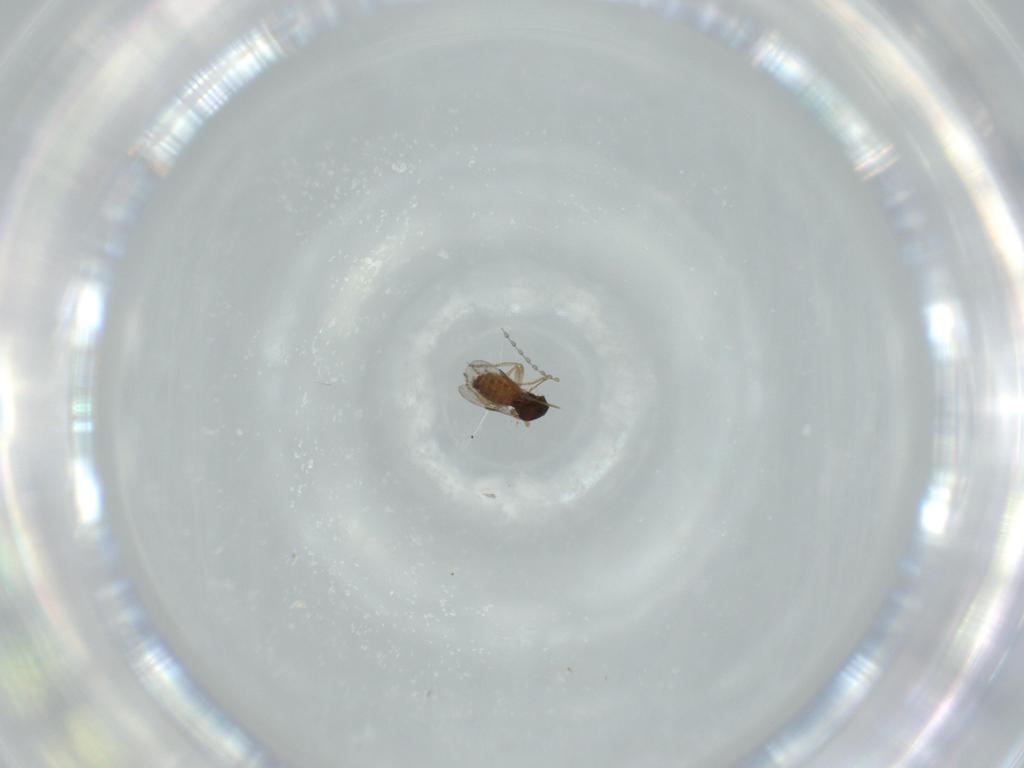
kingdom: Animalia
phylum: Arthropoda
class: Insecta
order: Diptera
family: Ceratopogonidae
